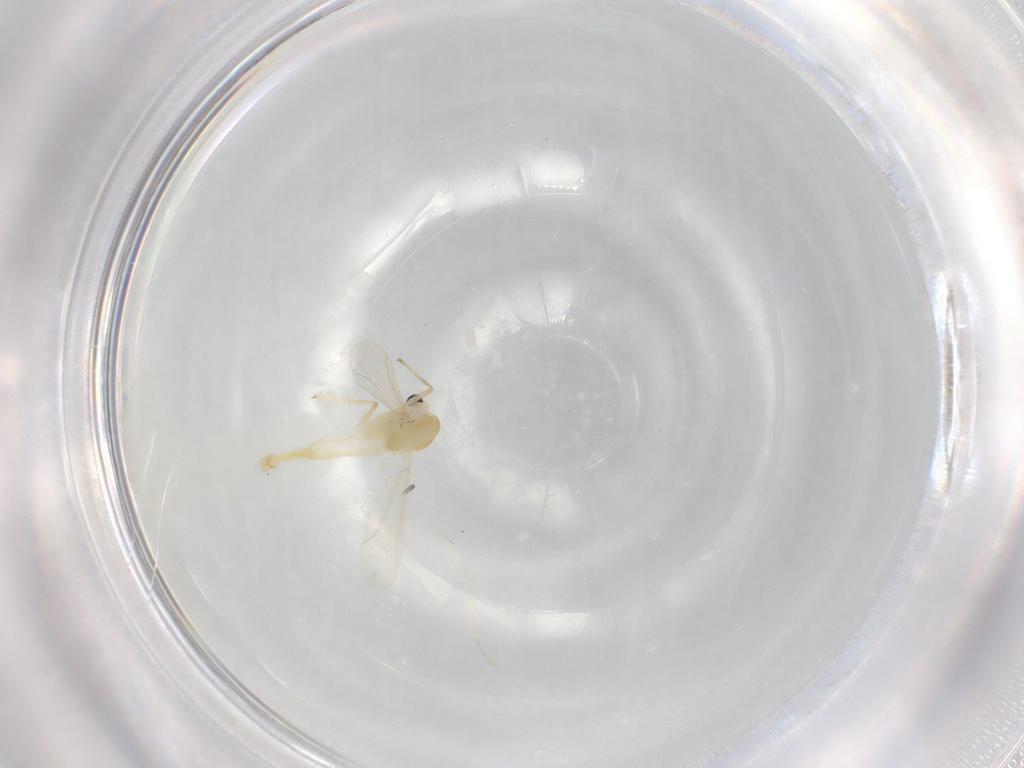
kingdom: Animalia
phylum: Arthropoda
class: Insecta
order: Diptera
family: Chironomidae
